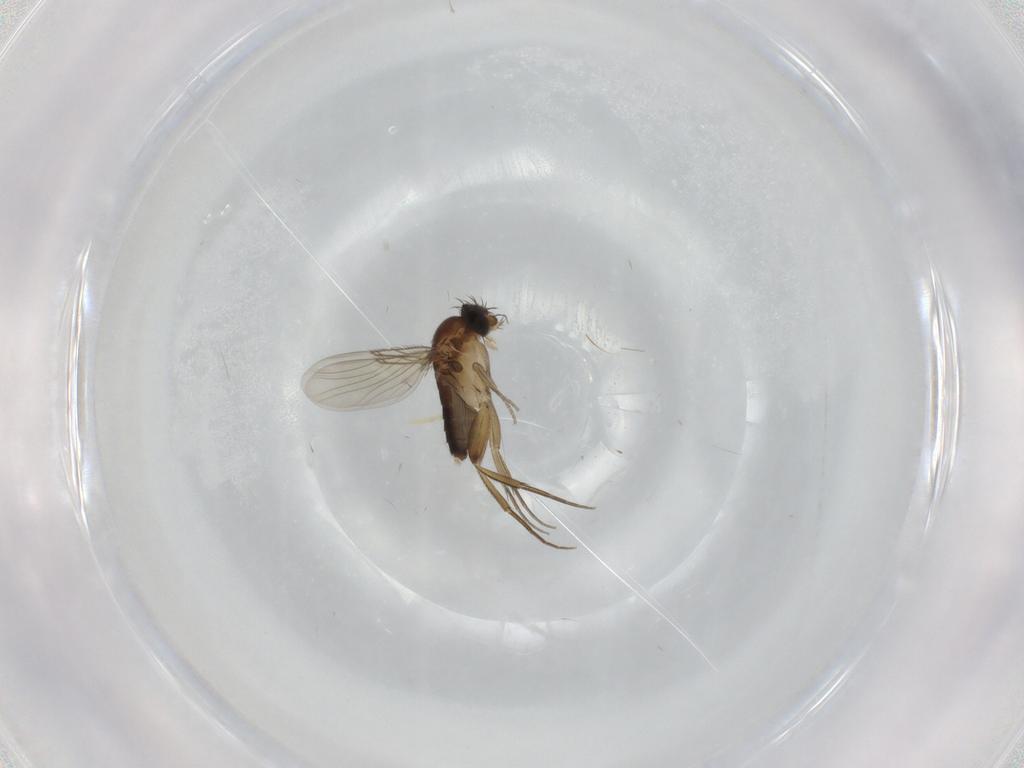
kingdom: Animalia
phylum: Arthropoda
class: Insecta
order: Diptera
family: Phoridae
